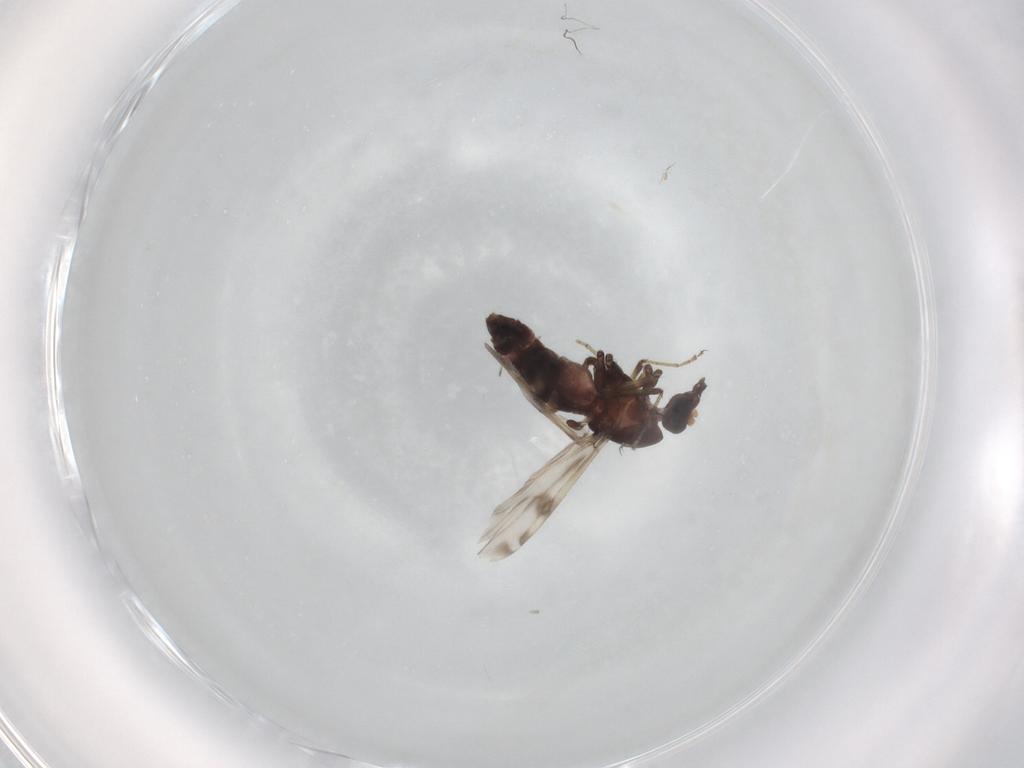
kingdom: Animalia
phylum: Arthropoda
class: Insecta
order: Diptera
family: Ceratopogonidae
